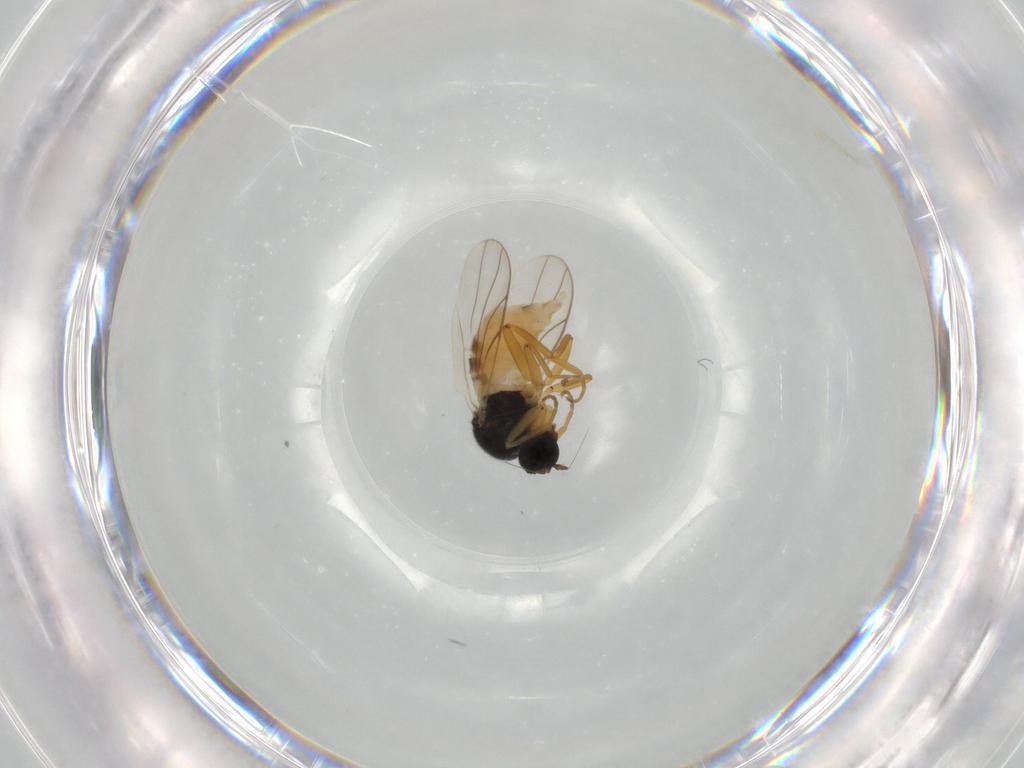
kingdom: Animalia
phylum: Arthropoda
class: Insecta
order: Diptera
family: Hybotidae
